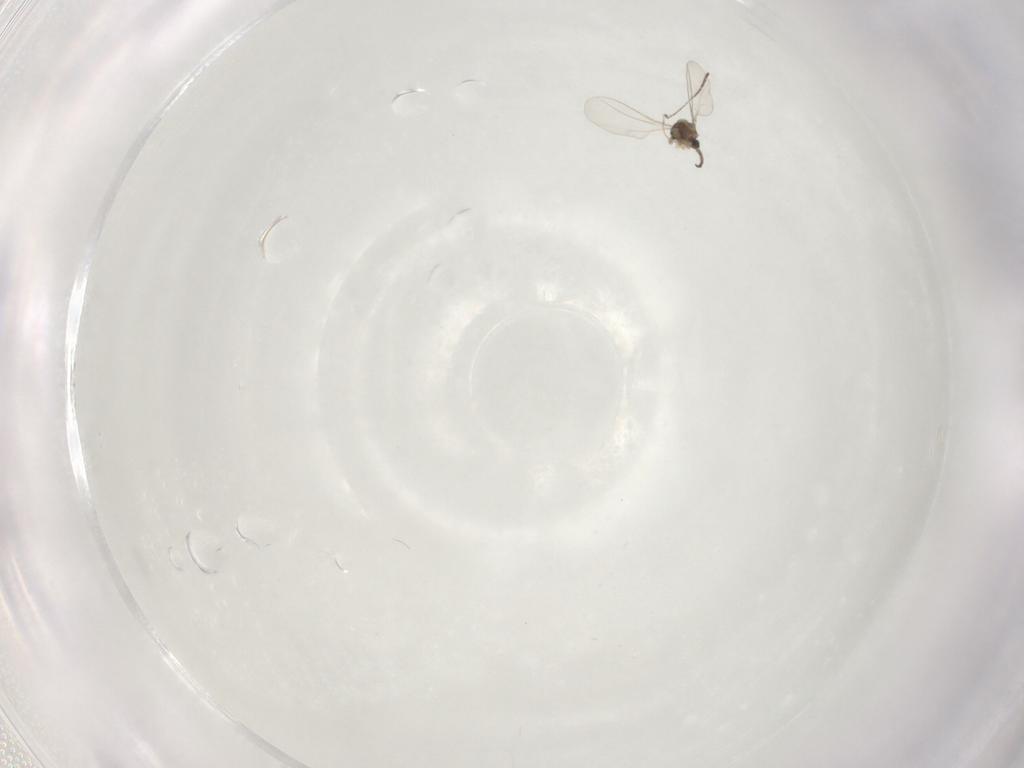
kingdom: Animalia
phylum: Arthropoda
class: Insecta
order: Diptera
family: Cecidomyiidae
